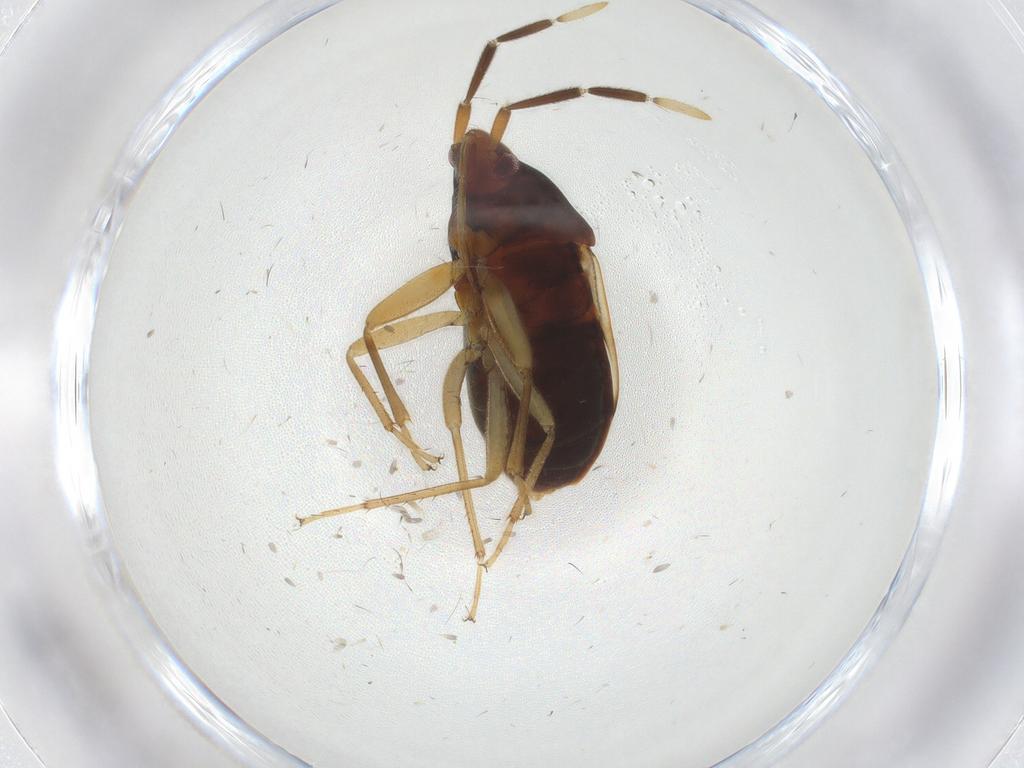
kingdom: Animalia
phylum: Arthropoda
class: Insecta
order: Hemiptera
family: Rhyparochromidae
